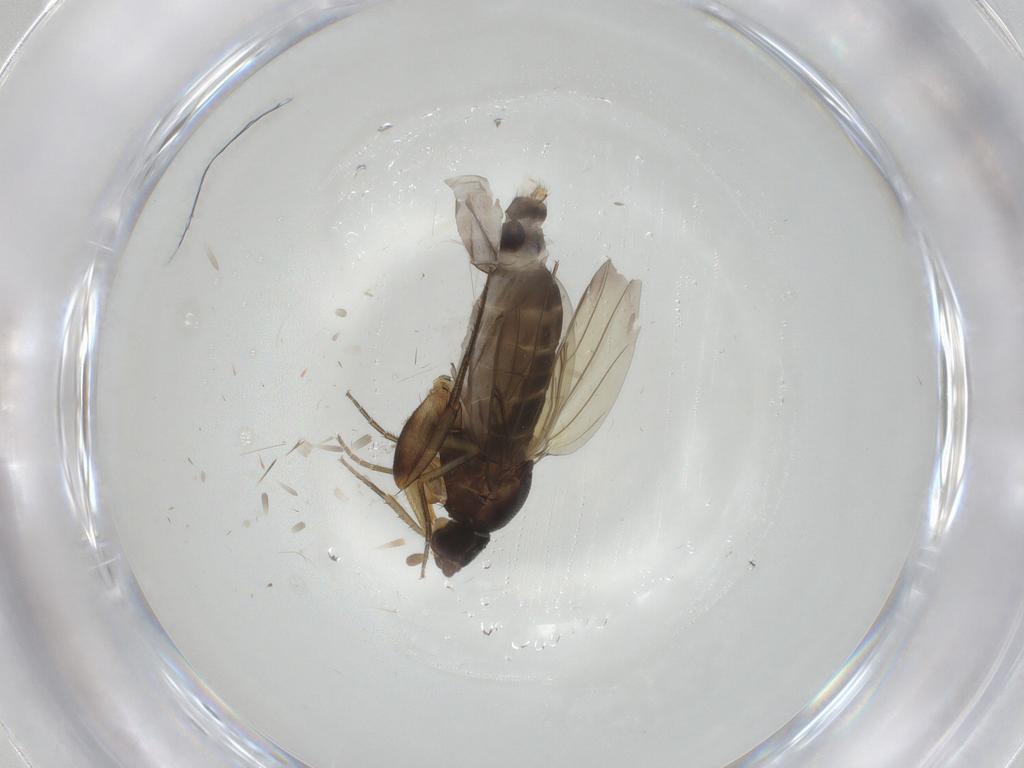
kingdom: Animalia
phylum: Arthropoda
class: Insecta
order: Diptera
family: Phoridae
